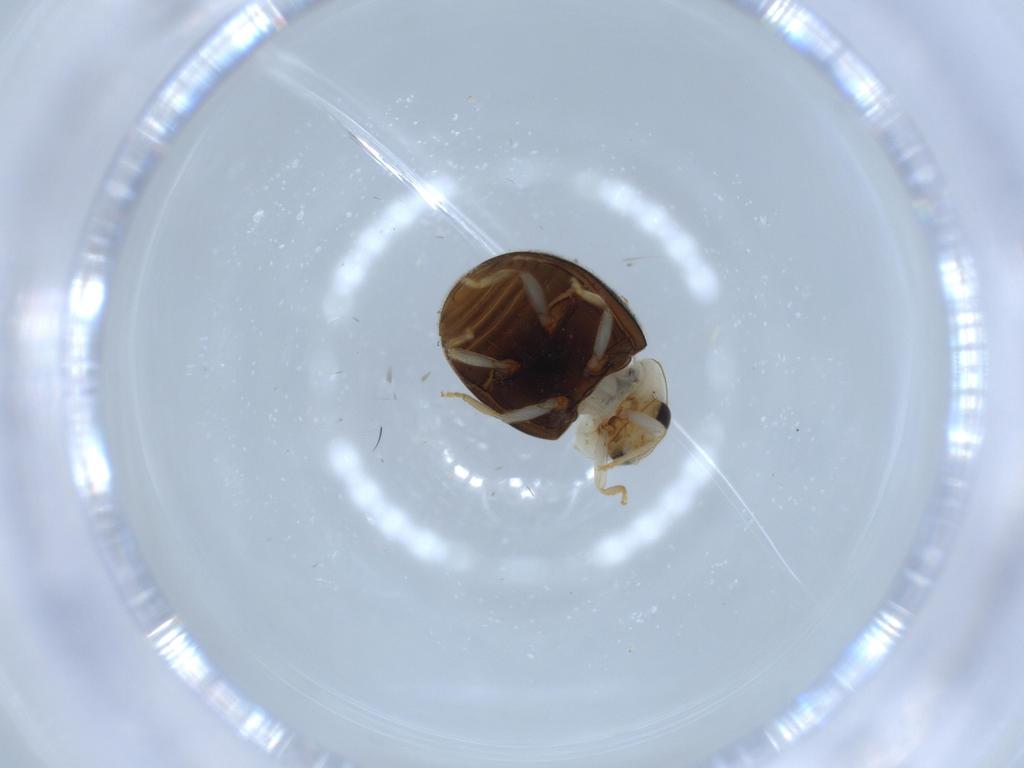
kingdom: Animalia
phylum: Arthropoda
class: Insecta
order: Coleoptera
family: Coccinellidae
